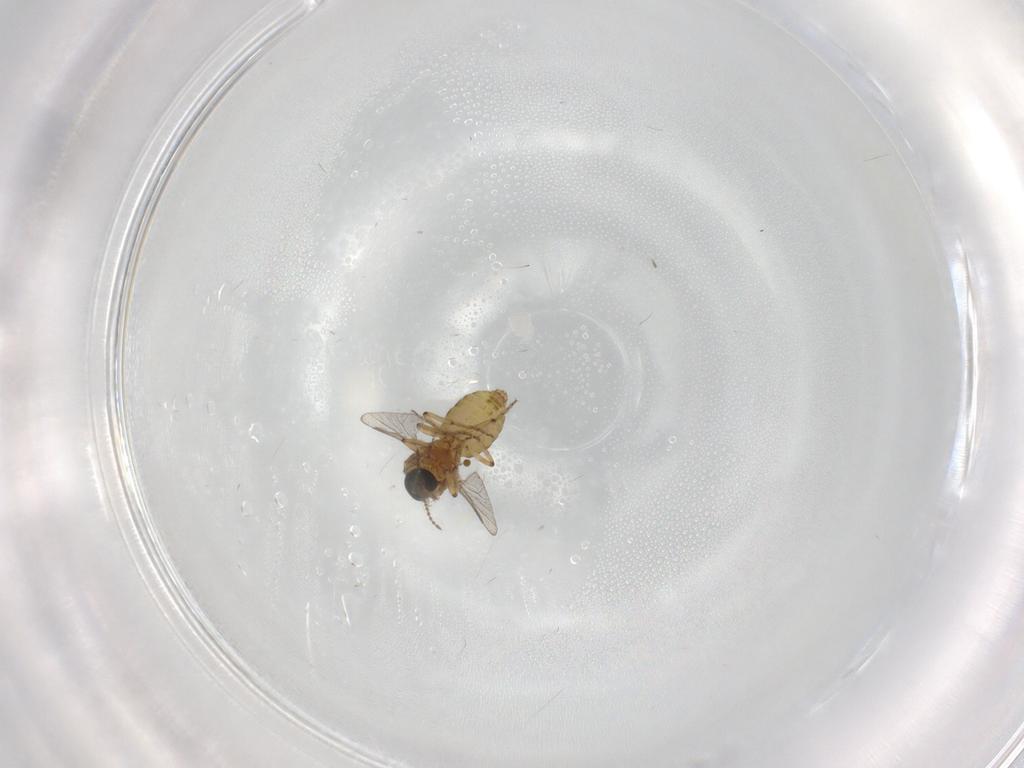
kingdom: Animalia
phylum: Arthropoda
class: Insecta
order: Diptera
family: Ceratopogonidae
